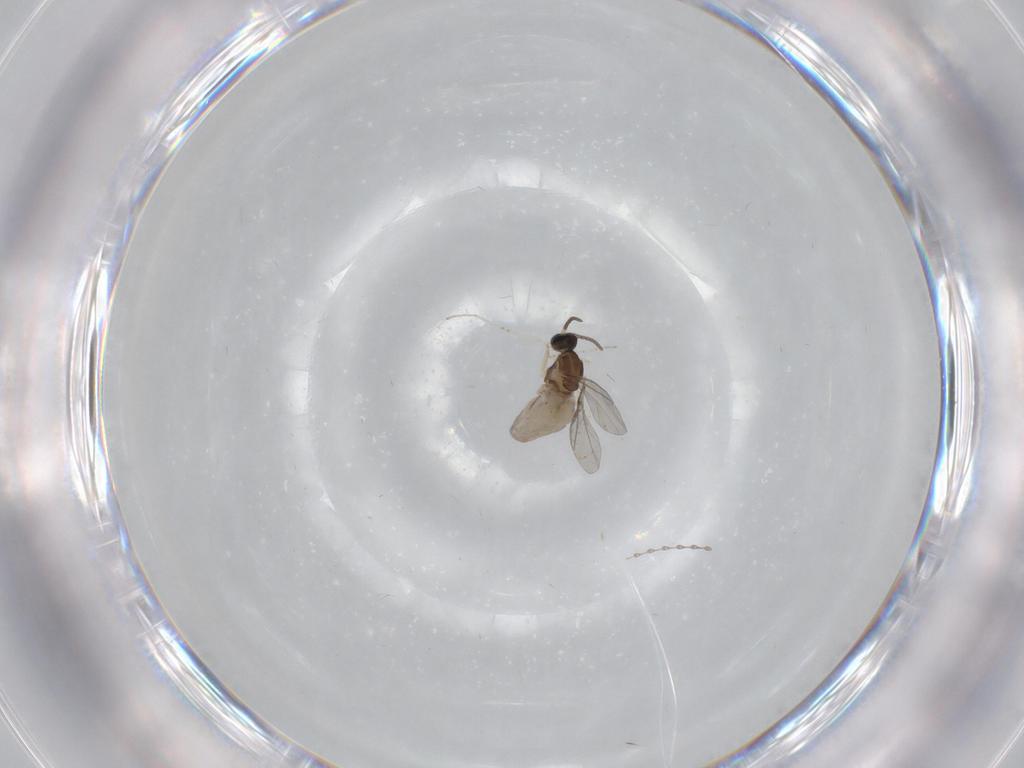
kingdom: Animalia
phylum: Arthropoda
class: Insecta
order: Diptera
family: Cecidomyiidae
